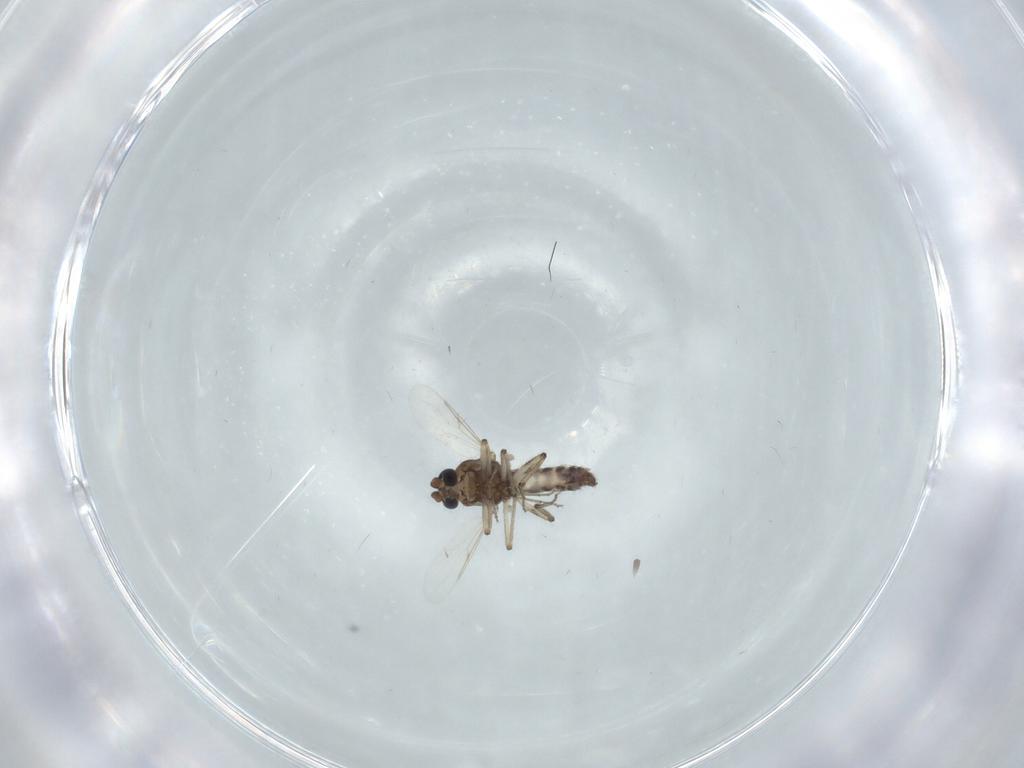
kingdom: Animalia
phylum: Arthropoda
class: Insecta
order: Diptera
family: Ceratopogonidae
